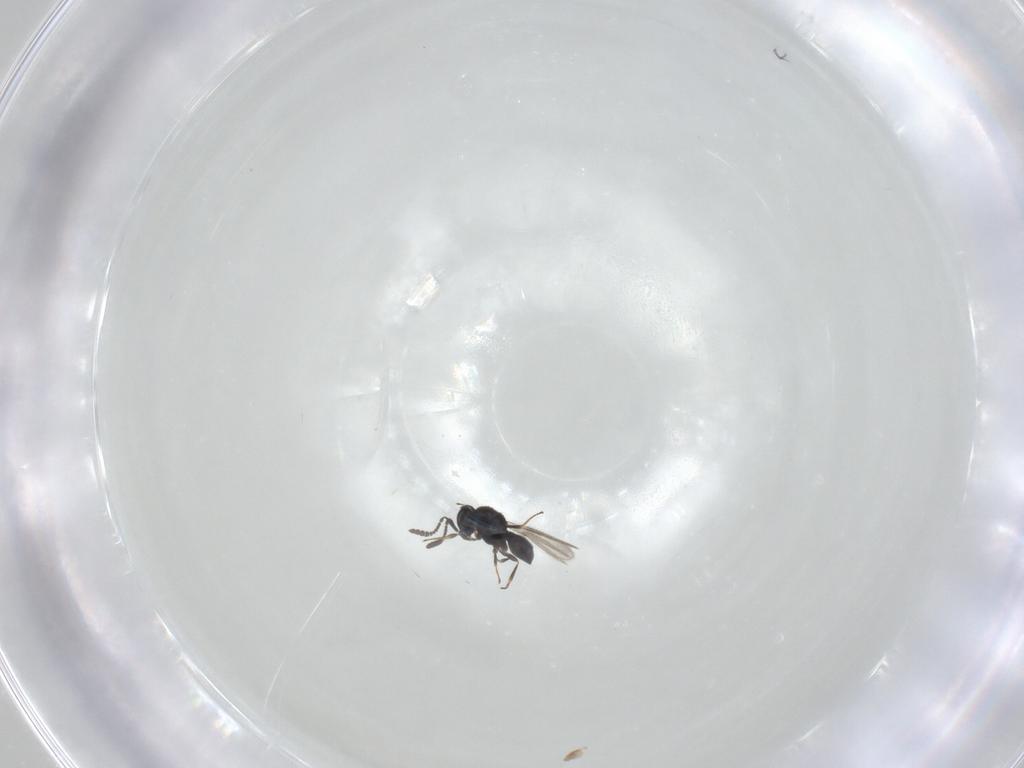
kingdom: Animalia
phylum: Arthropoda
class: Insecta
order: Hymenoptera
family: Scelionidae
